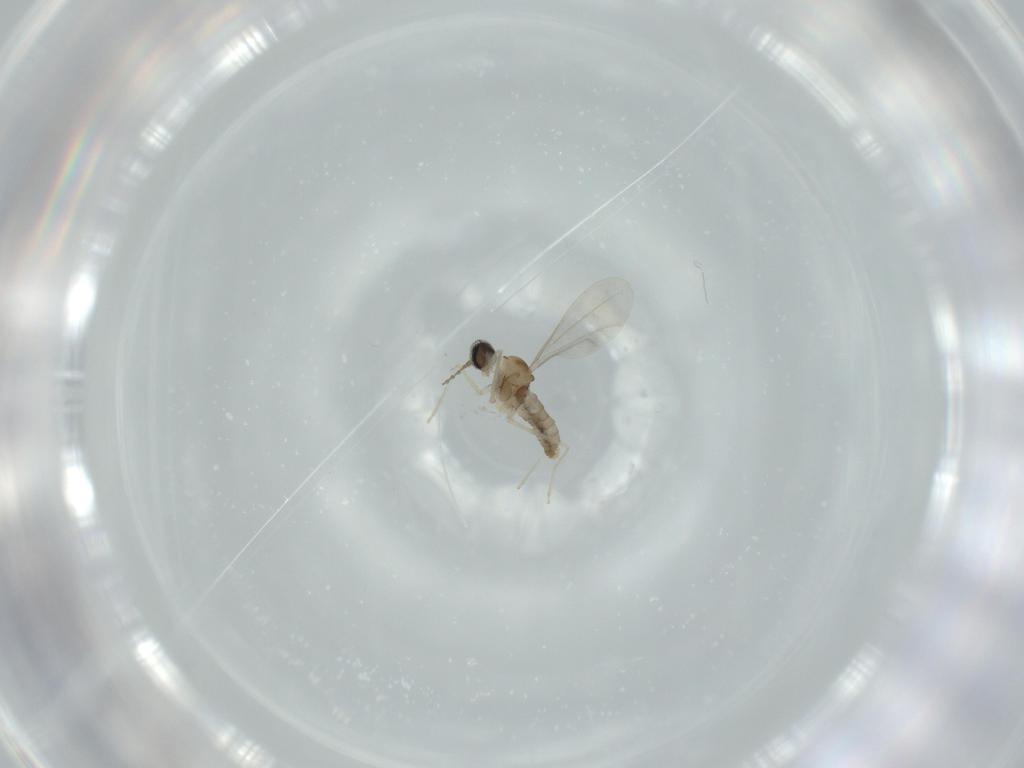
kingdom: Animalia
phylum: Arthropoda
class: Insecta
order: Diptera
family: Cecidomyiidae
